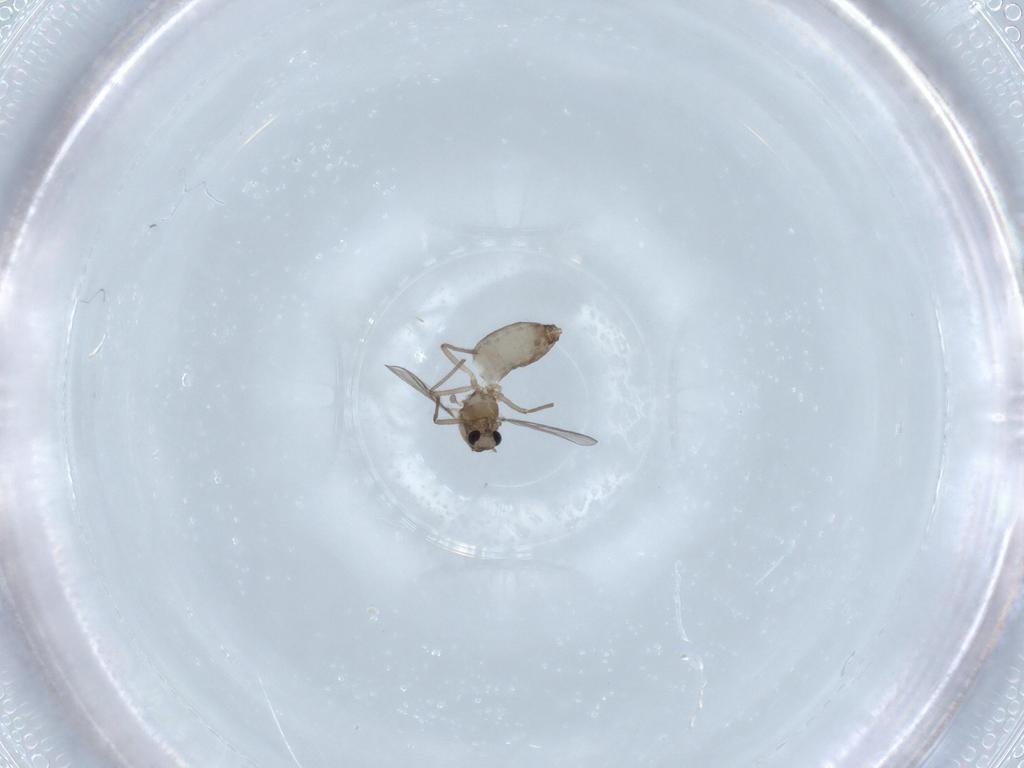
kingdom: Animalia
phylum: Arthropoda
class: Insecta
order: Diptera
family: Chironomidae
